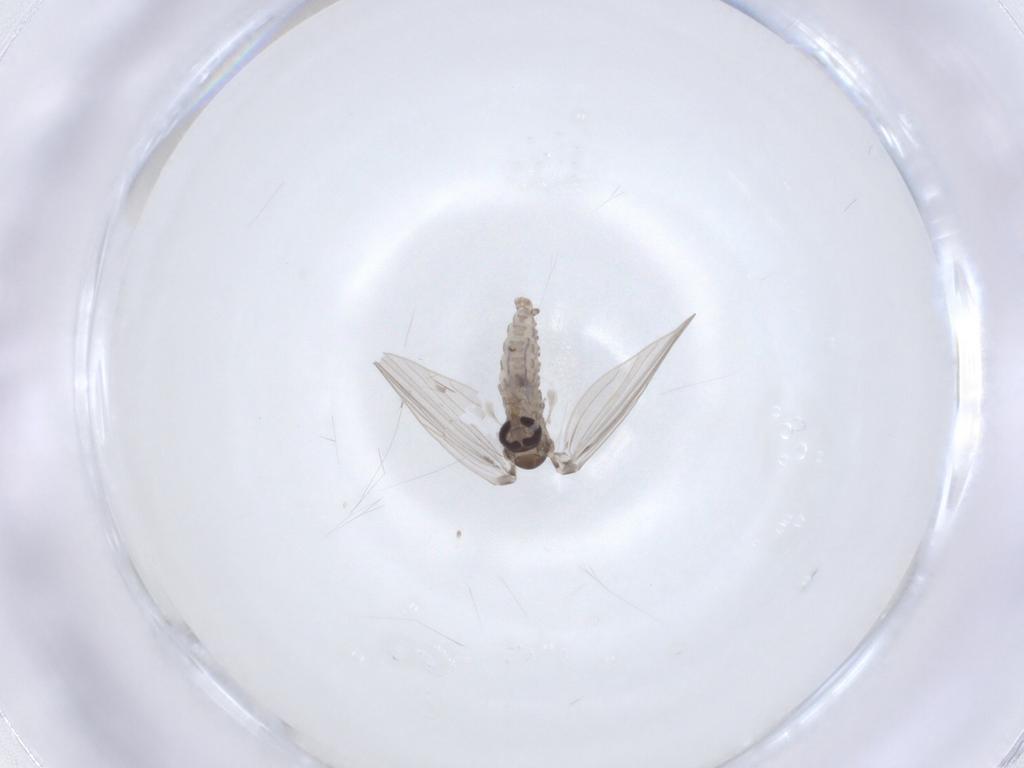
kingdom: Animalia
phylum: Arthropoda
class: Insecta
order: Diptera
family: Psychodidae
